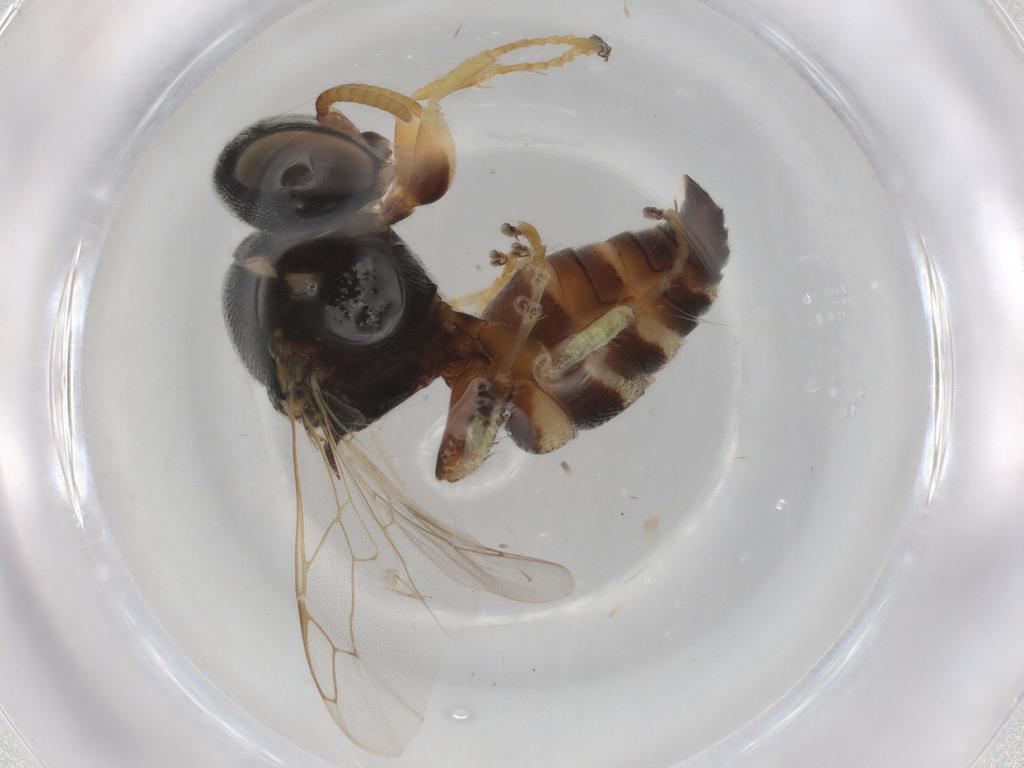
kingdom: Animalia
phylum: Arthropoda
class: Insecta
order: Hymenoptera
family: Crabronidae
